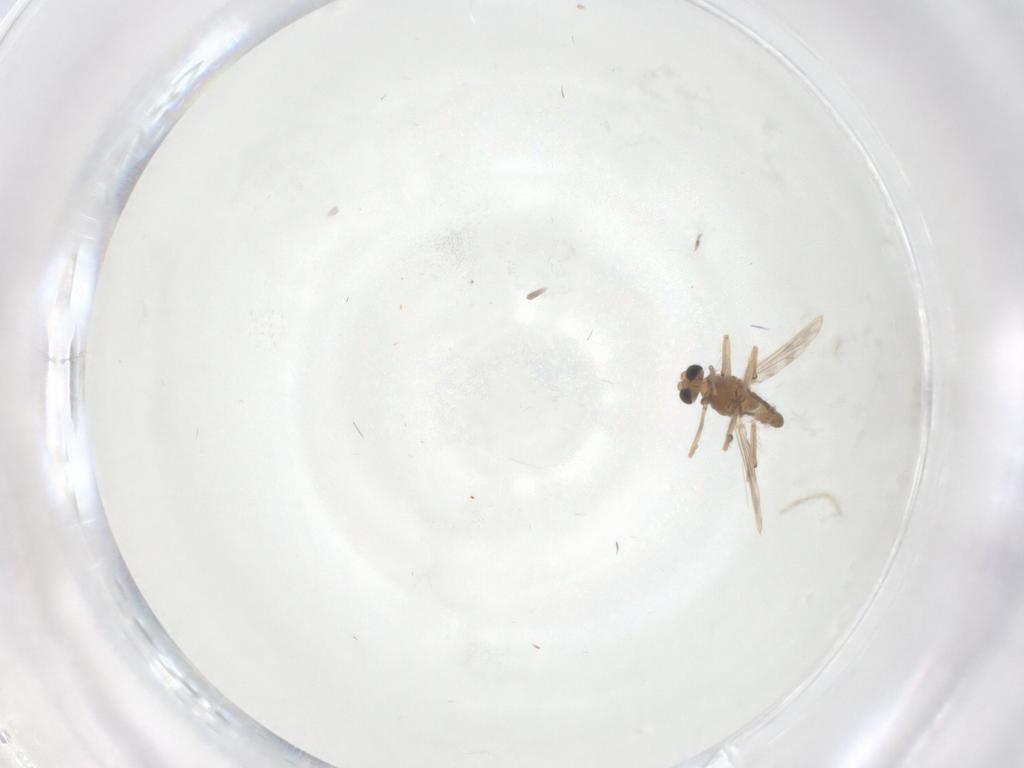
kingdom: Animalia
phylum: Arthropoda
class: Insecta
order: Diptera
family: Chironomidae
